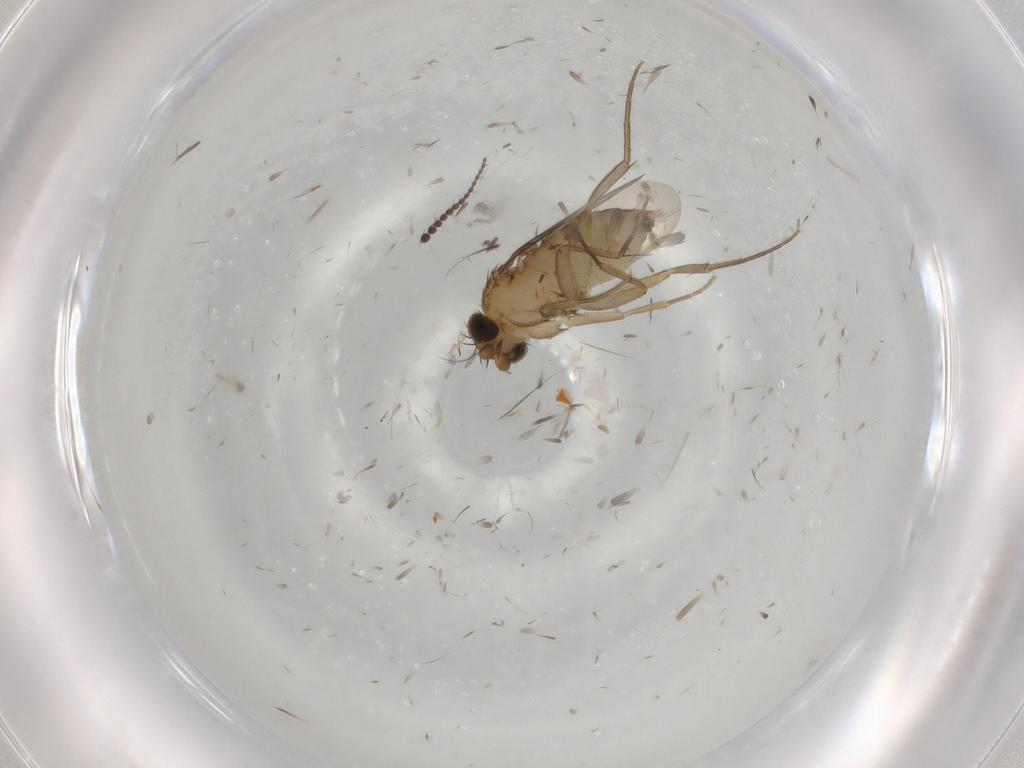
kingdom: Animalia
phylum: Arthropoda
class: Insecta
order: Diptera
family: Phoridae
